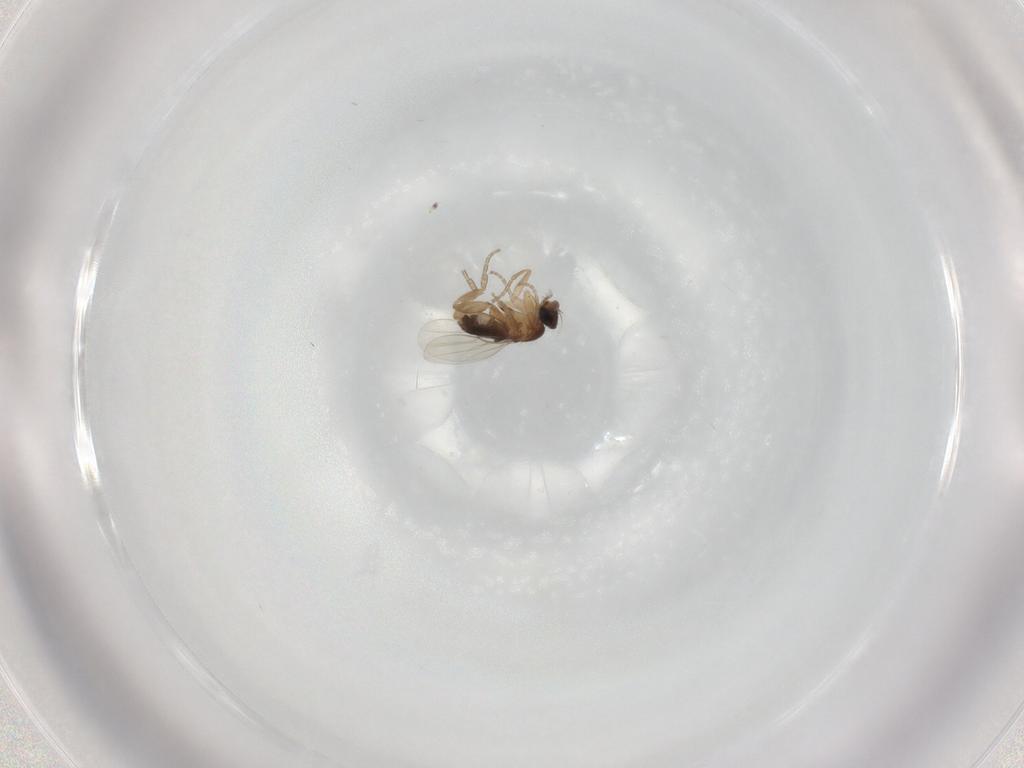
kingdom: Animalia
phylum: Arthropoda
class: Insecta
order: Diptera
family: Phoridae
